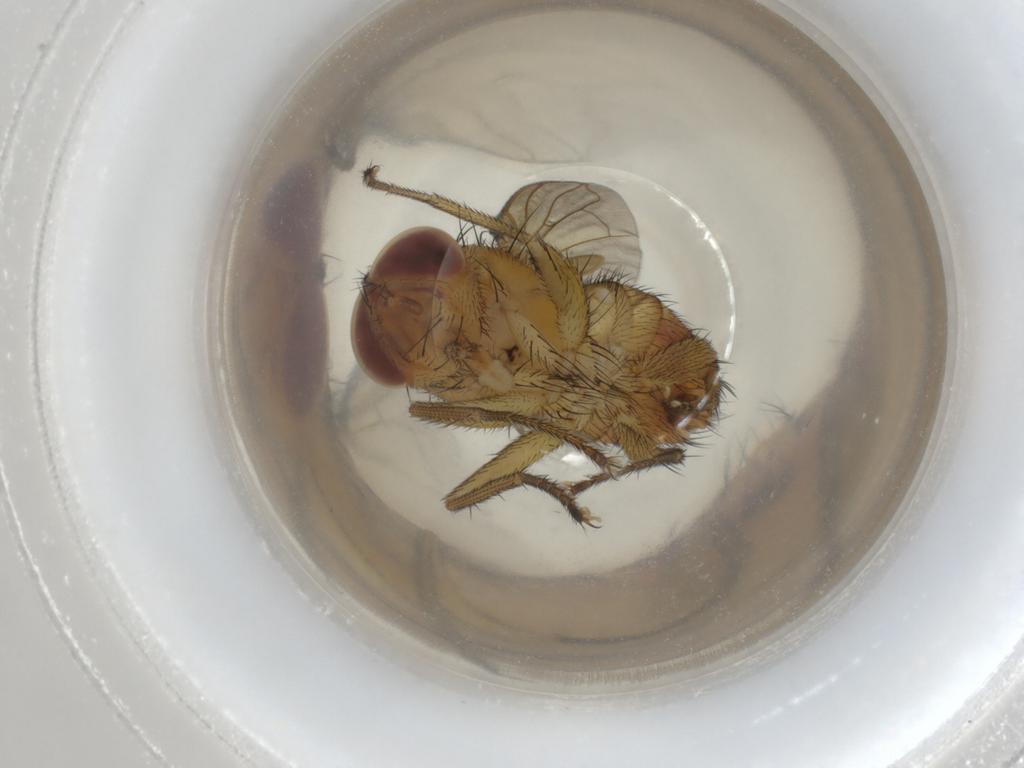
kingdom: Animalia
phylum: Arthropoda
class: Insecta
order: Diptera
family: Calliphoridae
